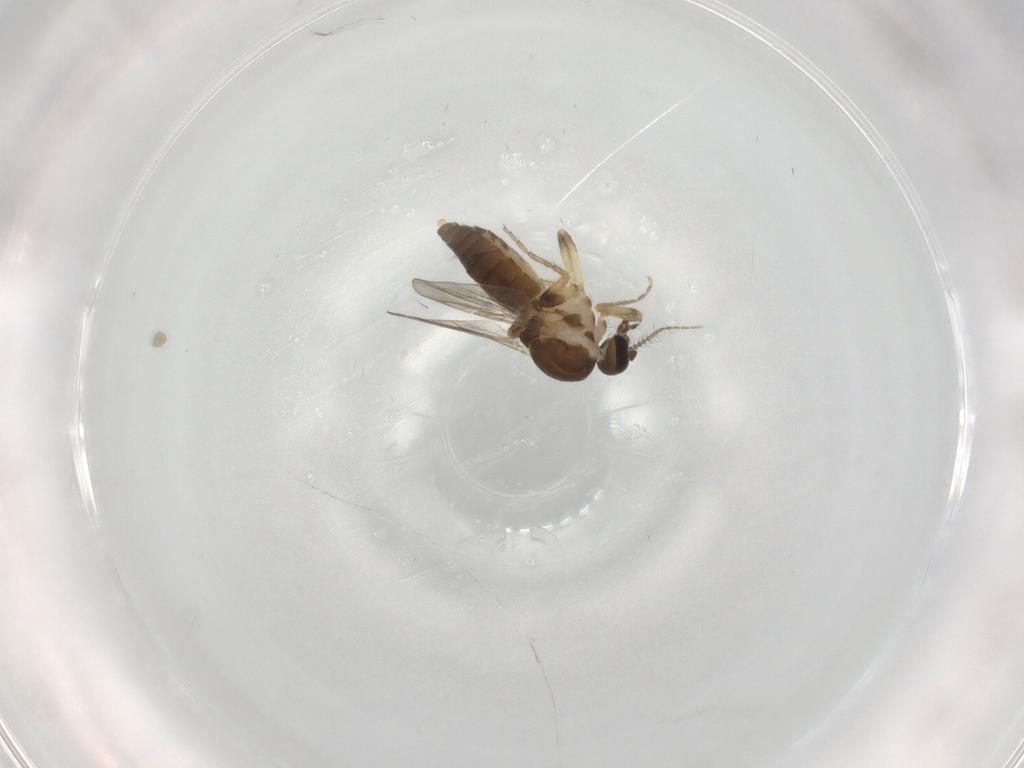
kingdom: Animalia
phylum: Arthropoda
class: Insecta
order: Diptera
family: Ceratopogonidae
